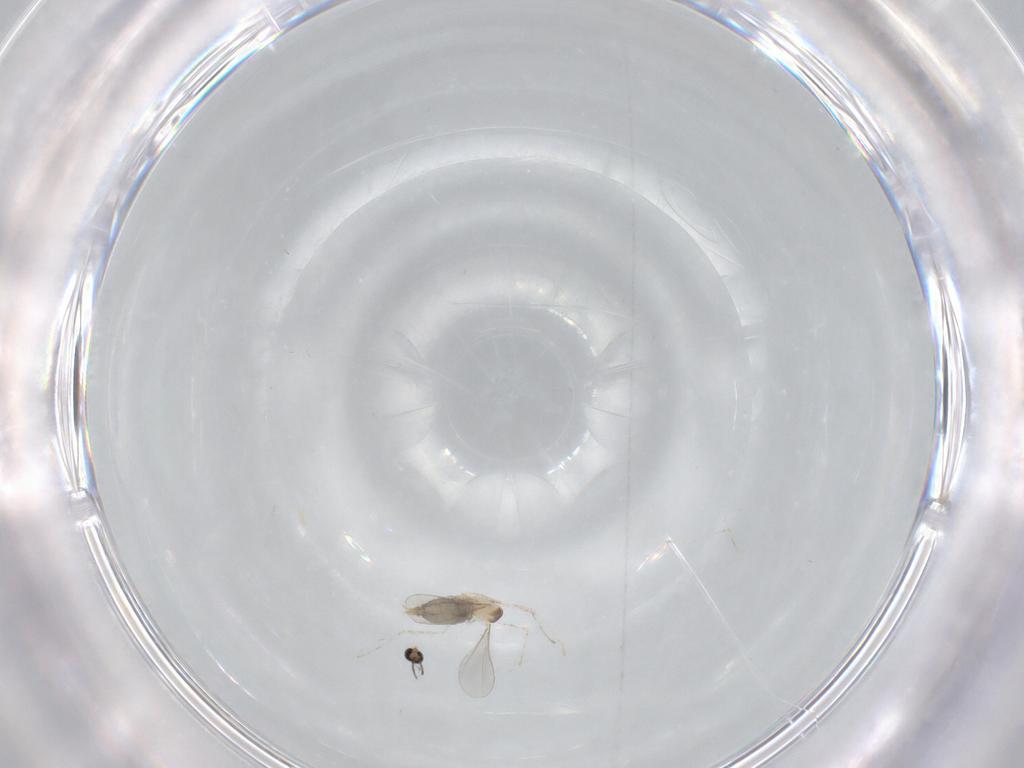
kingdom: Animalia
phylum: Arthropoda
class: Insecta
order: Diptera
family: Cecidomyiidae
